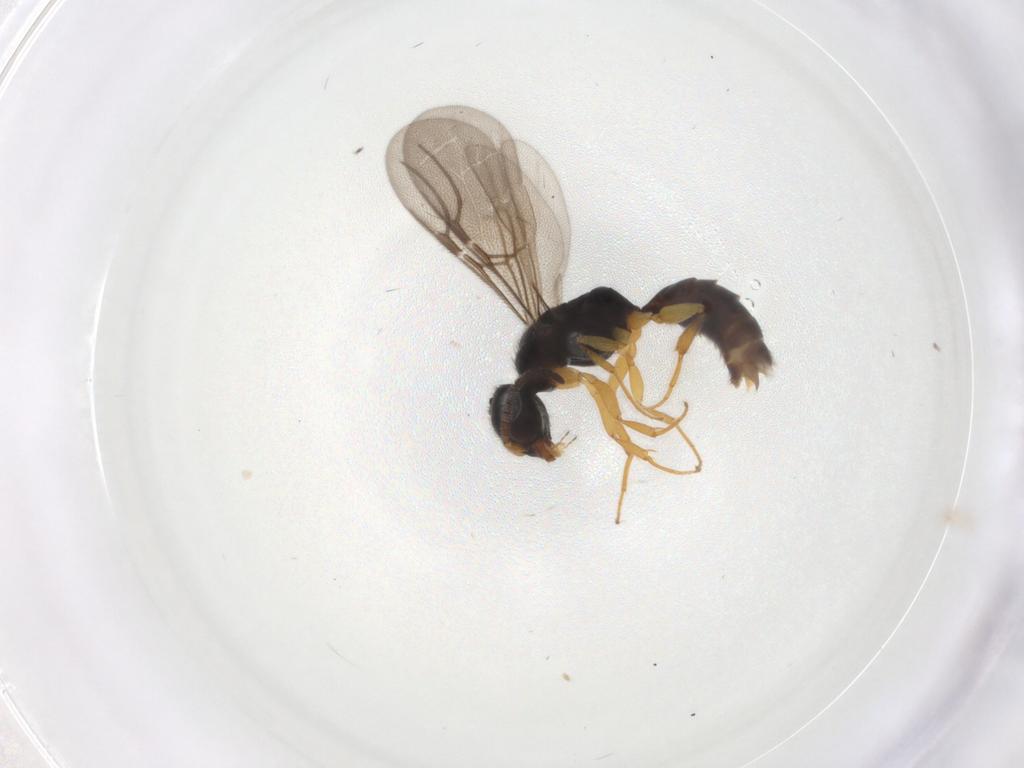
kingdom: Animalia
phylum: Arthropoda
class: Insecta
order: Hymenoptera
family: Bethylidae
